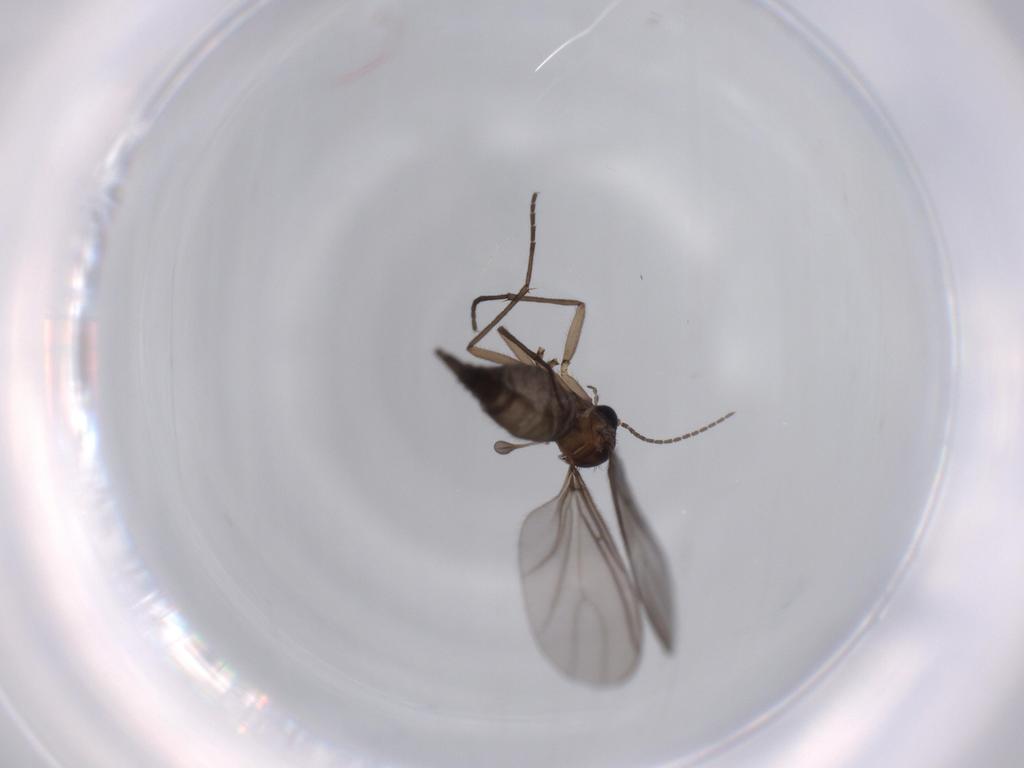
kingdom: Animalia
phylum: Arthropoda
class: Insecta
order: Diptera
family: Sciaridae
